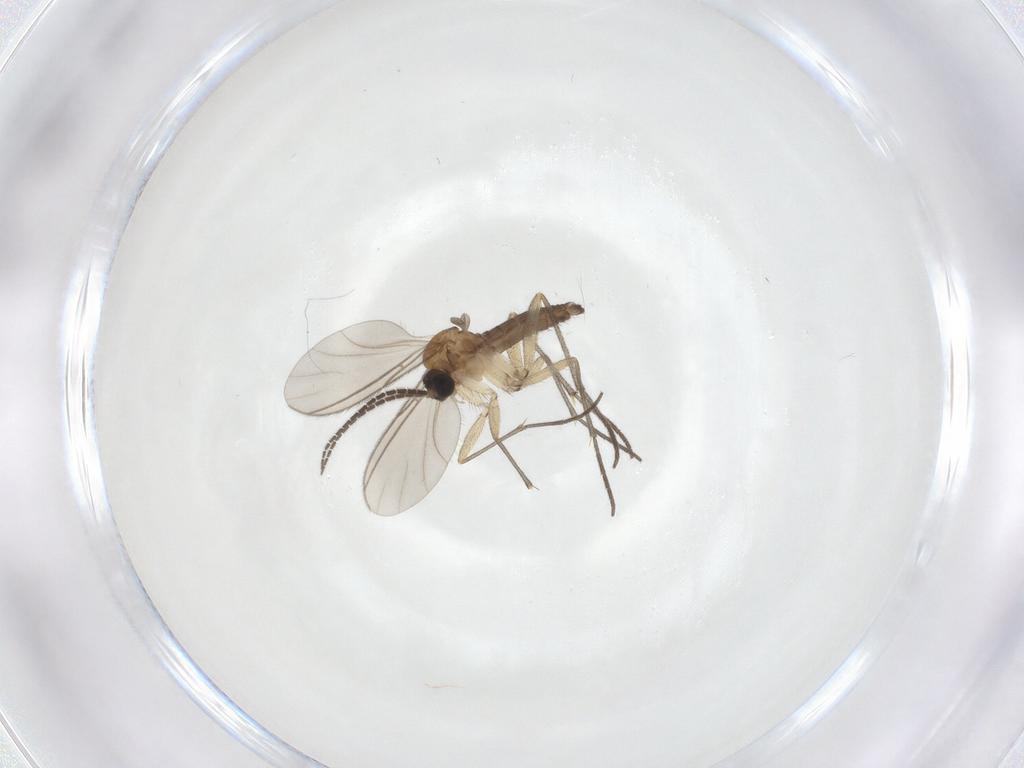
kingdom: Animalia
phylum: Arthropoda
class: Insecta
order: Diptera
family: Sciaridae
